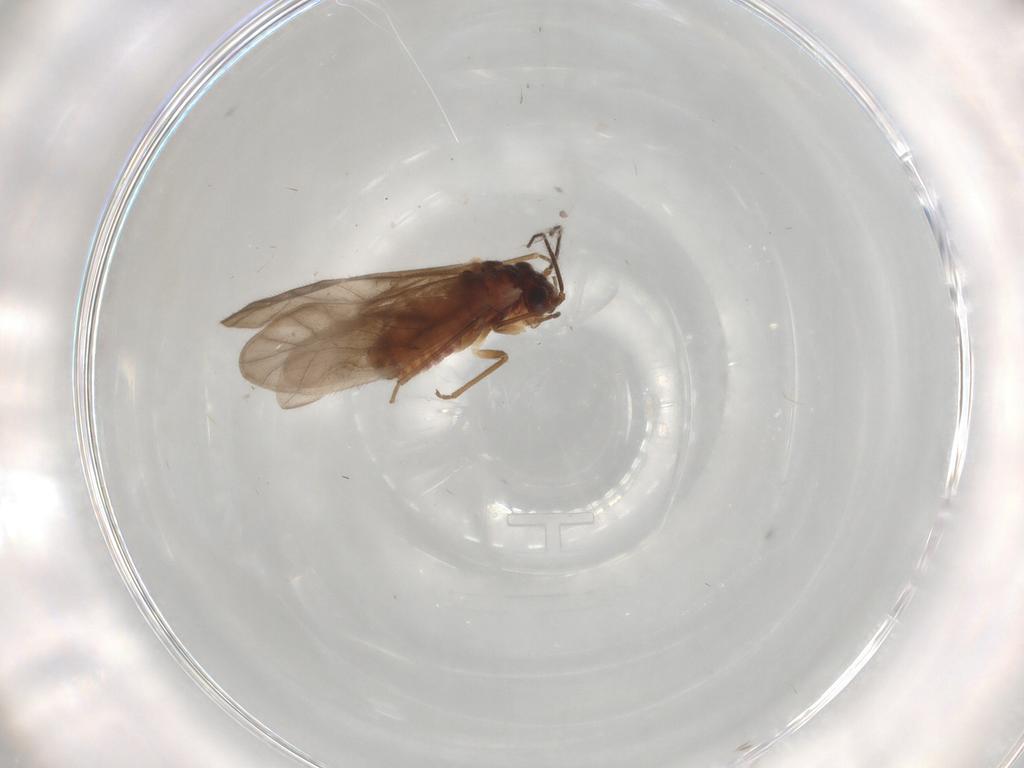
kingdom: Animalia
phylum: Arthropoda
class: Insecta
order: Psocodea
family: Caeciliusidae
